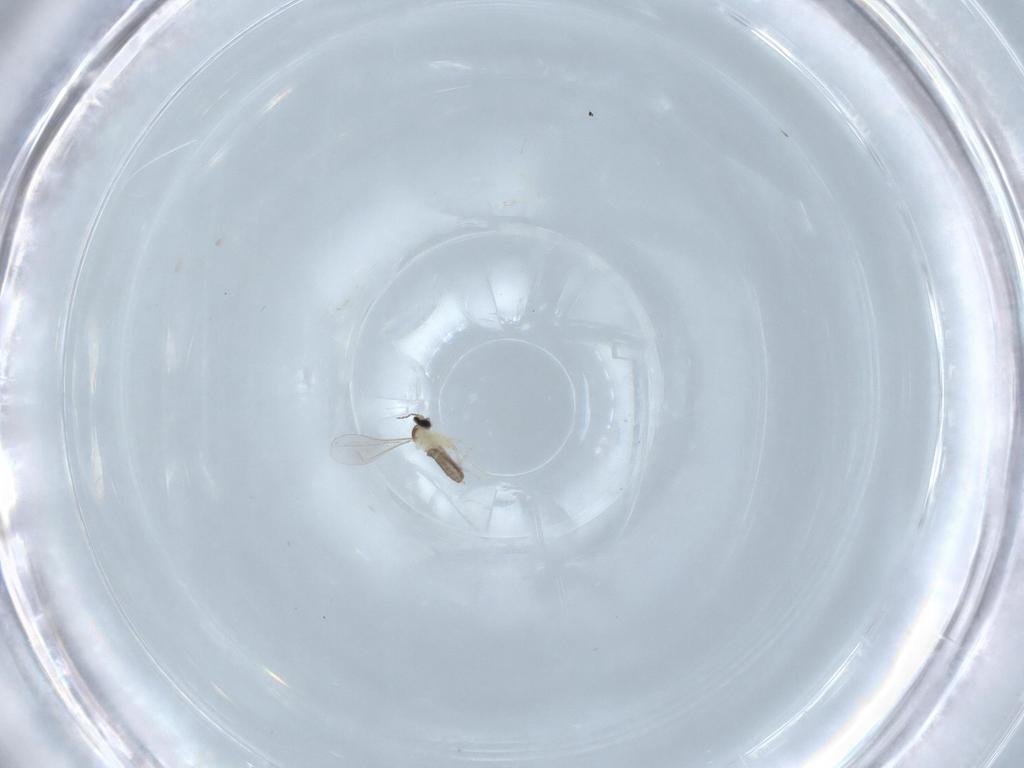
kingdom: Animalia
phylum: Arthropoda
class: Insecta
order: Diptera
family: Cecidomyiidae
